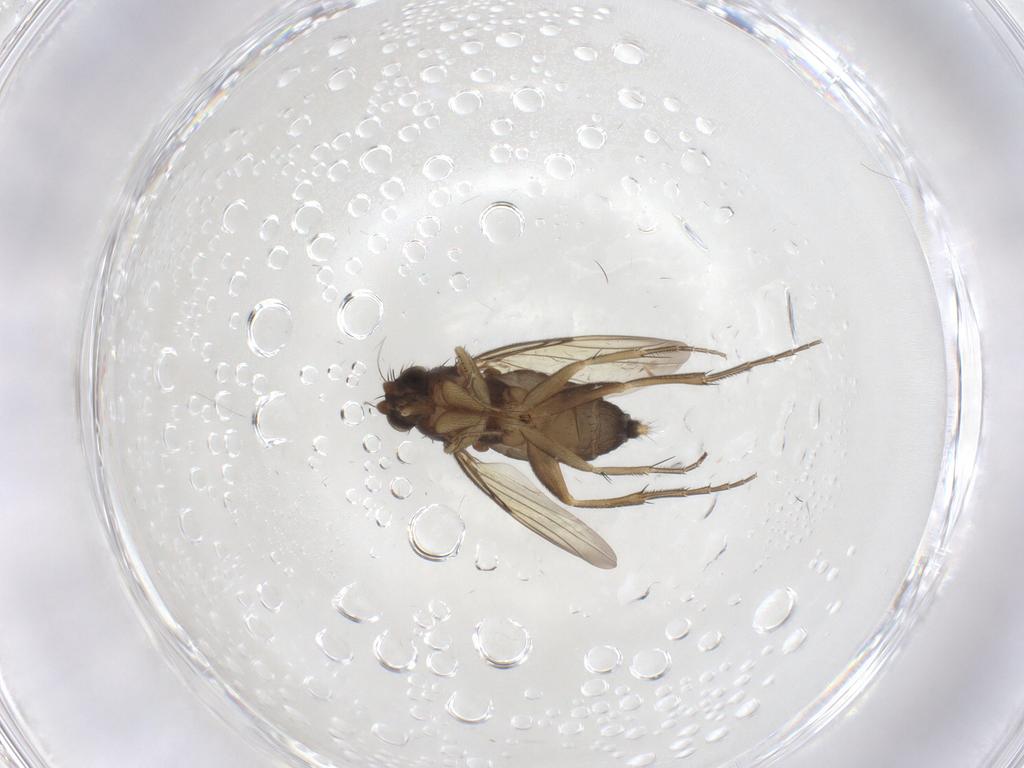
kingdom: Animalia
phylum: Arthropoda
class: Insecta
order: Diptera
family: Phoridae
